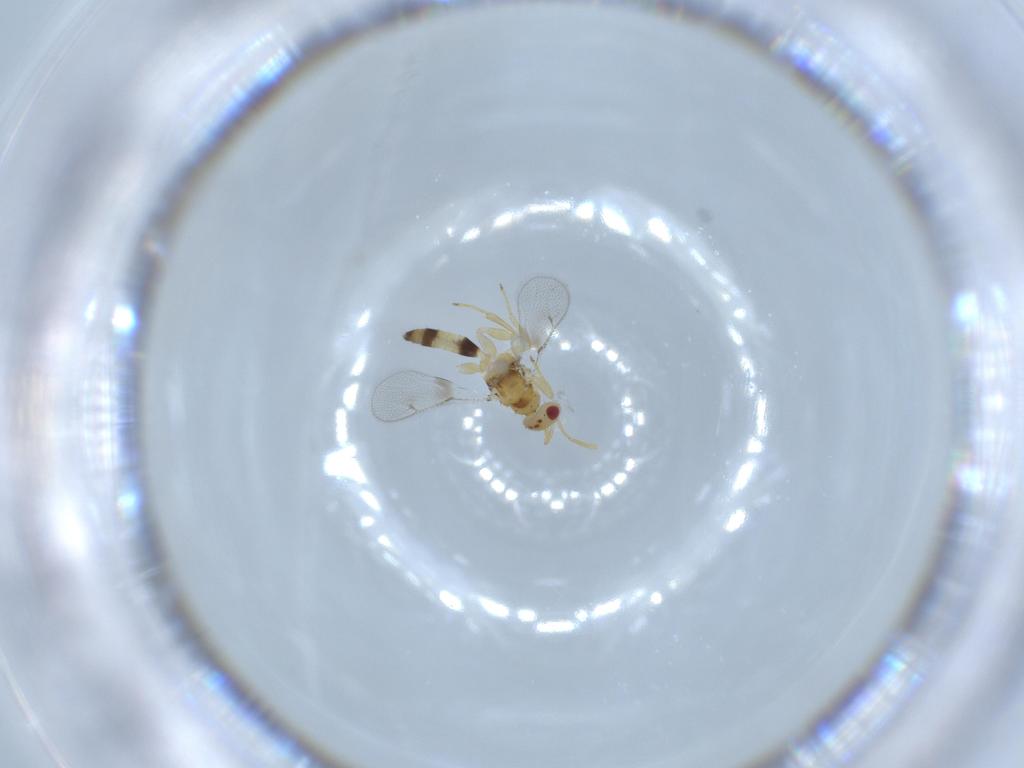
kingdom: Animalia
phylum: Arthropoda
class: Insecta
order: Hymenoptera
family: Torymidae
